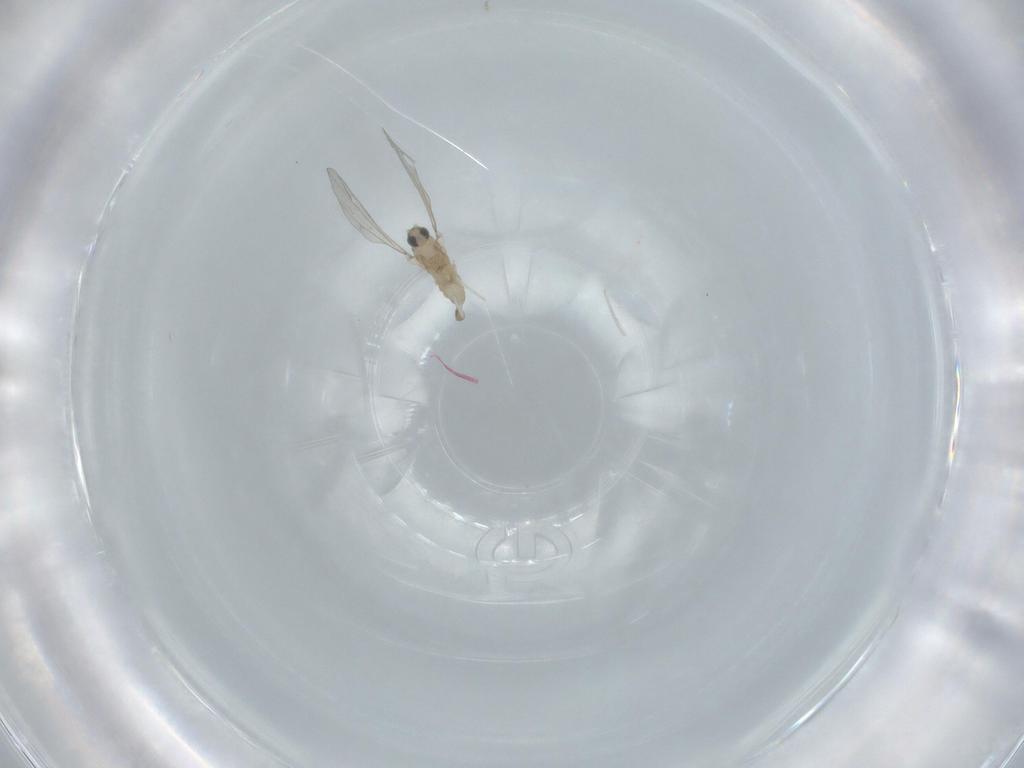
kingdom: Animalia
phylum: Arthropoda
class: Insecta
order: Diptera
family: Cecidomyiidae
